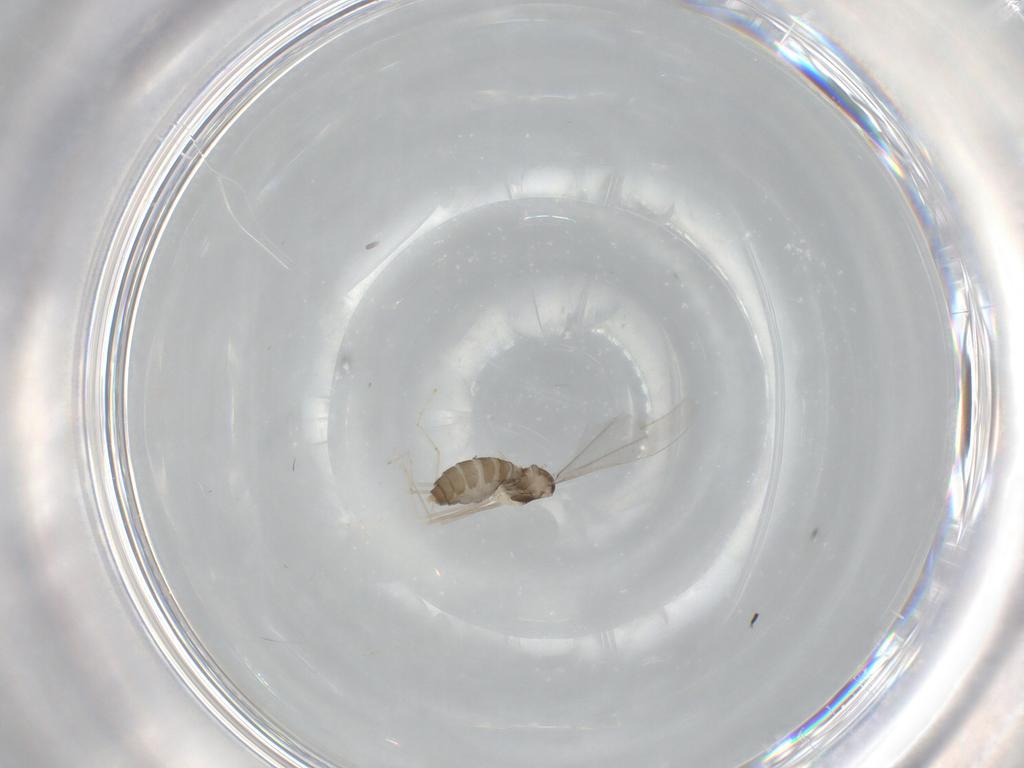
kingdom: Animalia
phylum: Arthropoda
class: Insecta
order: Diptera
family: Cecidomyiidae
